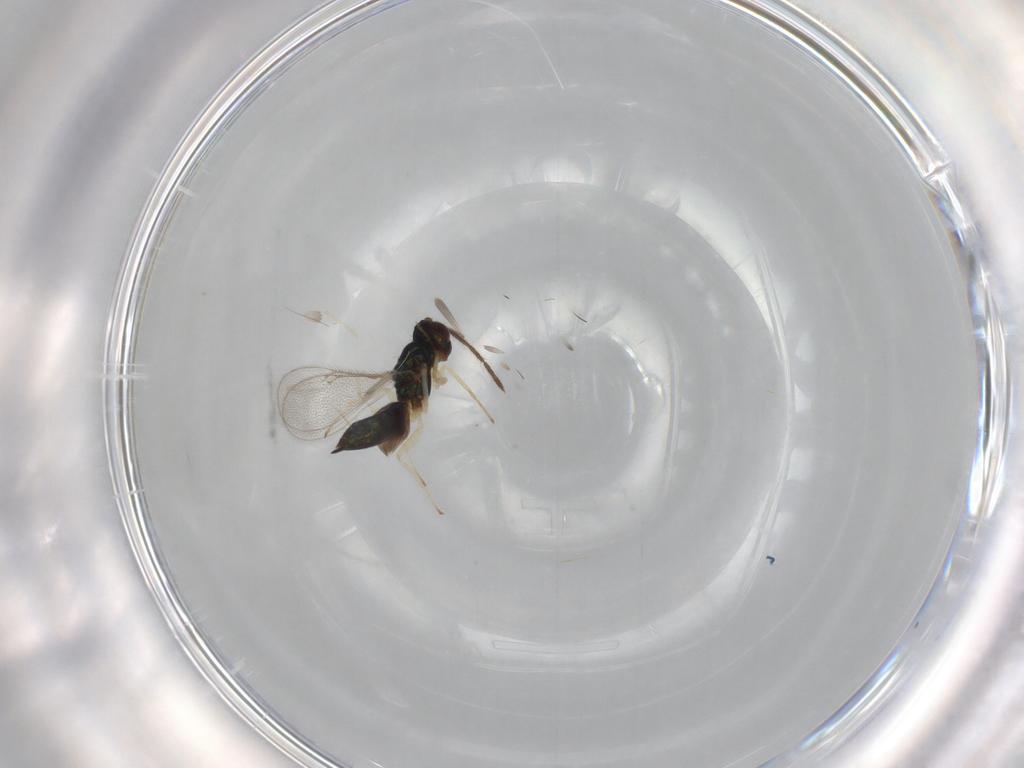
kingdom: Animalia
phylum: Arthropoda
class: Insecta
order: Hymenoptera
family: Eulophidae
